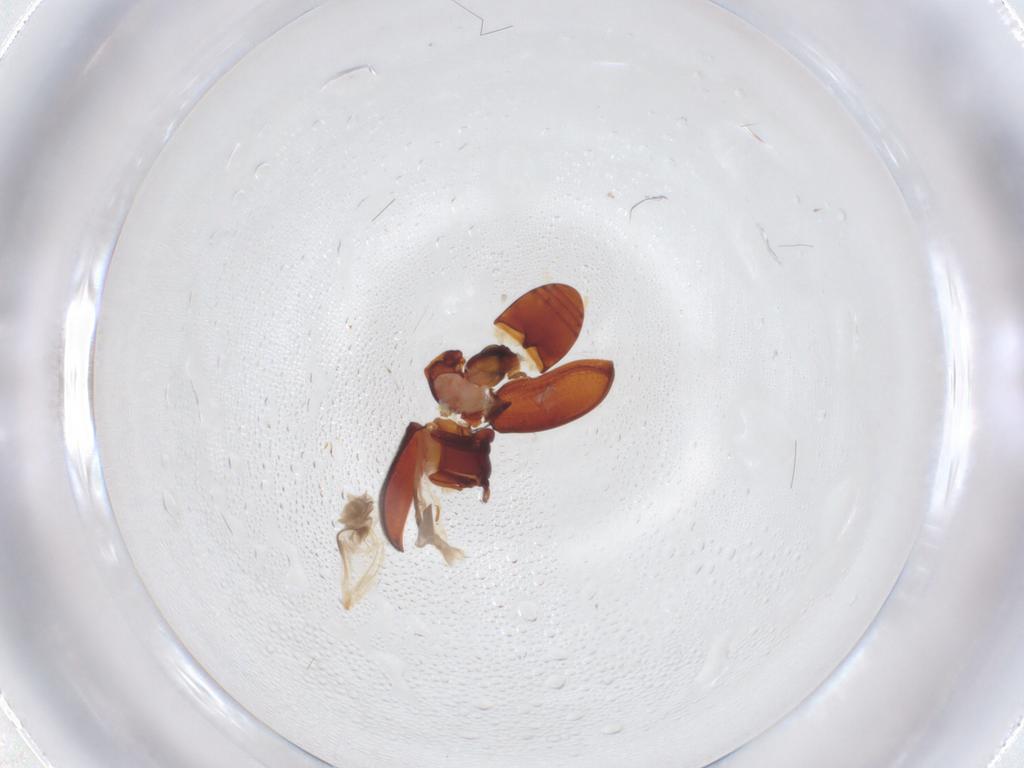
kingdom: Animalia
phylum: Arthropoda
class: Insecta
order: Coleoptera
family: Ptinidae
